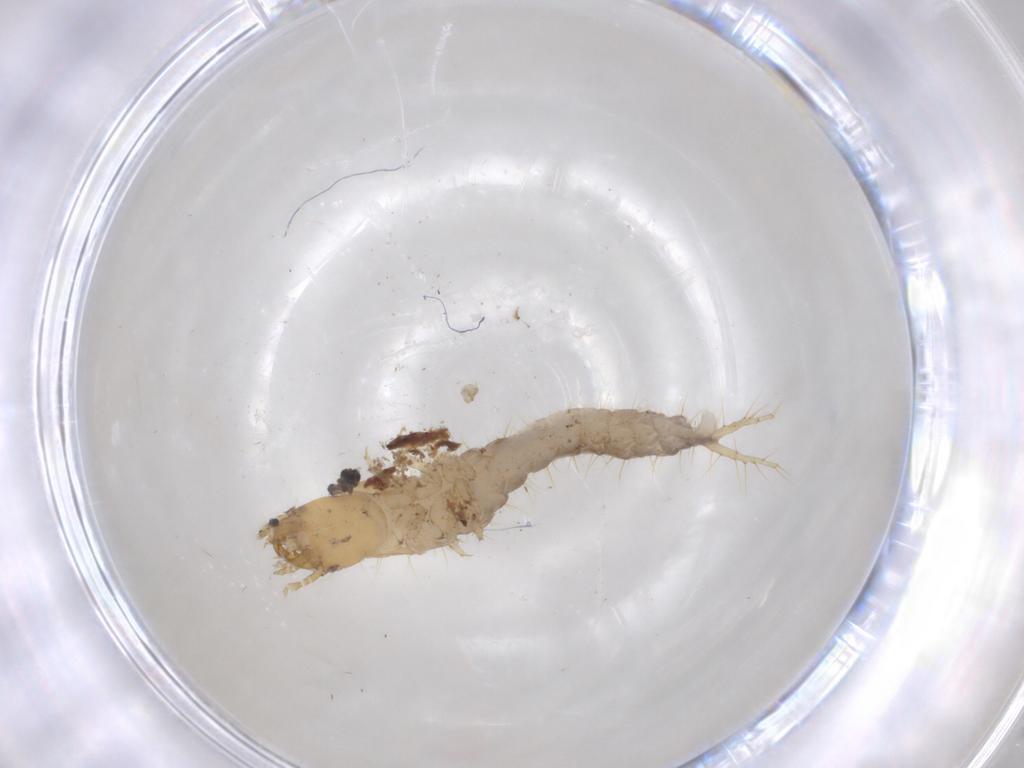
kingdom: Animalia
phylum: Arthropoda
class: Insecta
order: Coleoptera
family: Carabidae
